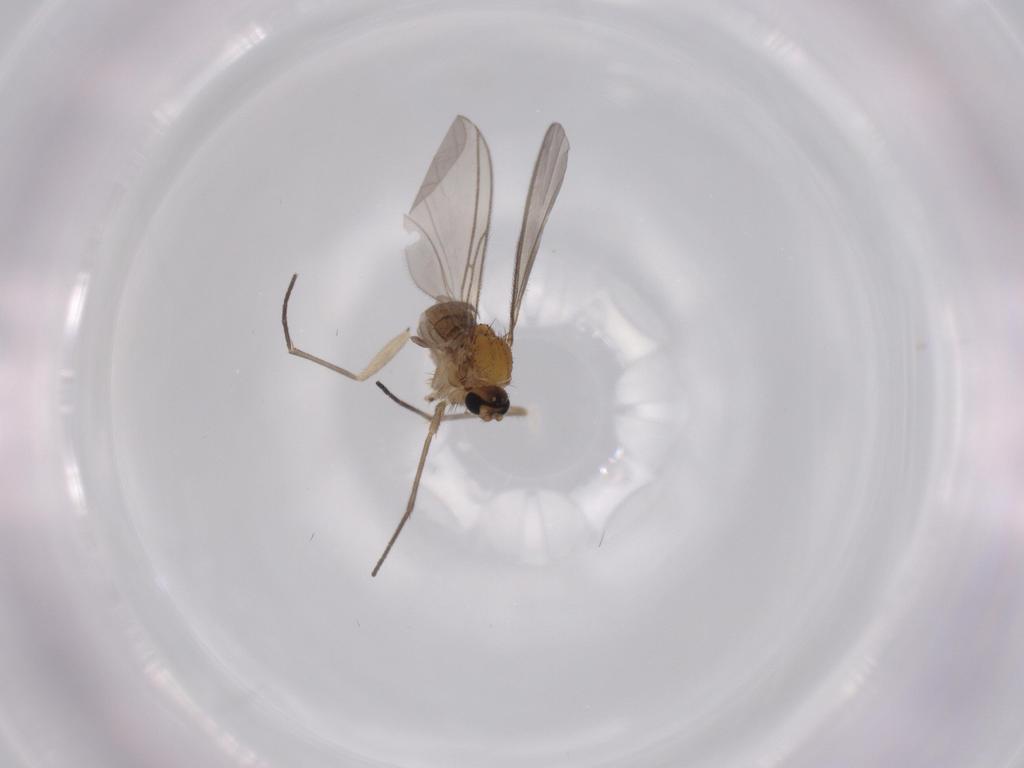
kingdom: Animalia
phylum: Arthropoda
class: Insecta
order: Diptera
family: Sciaridae
